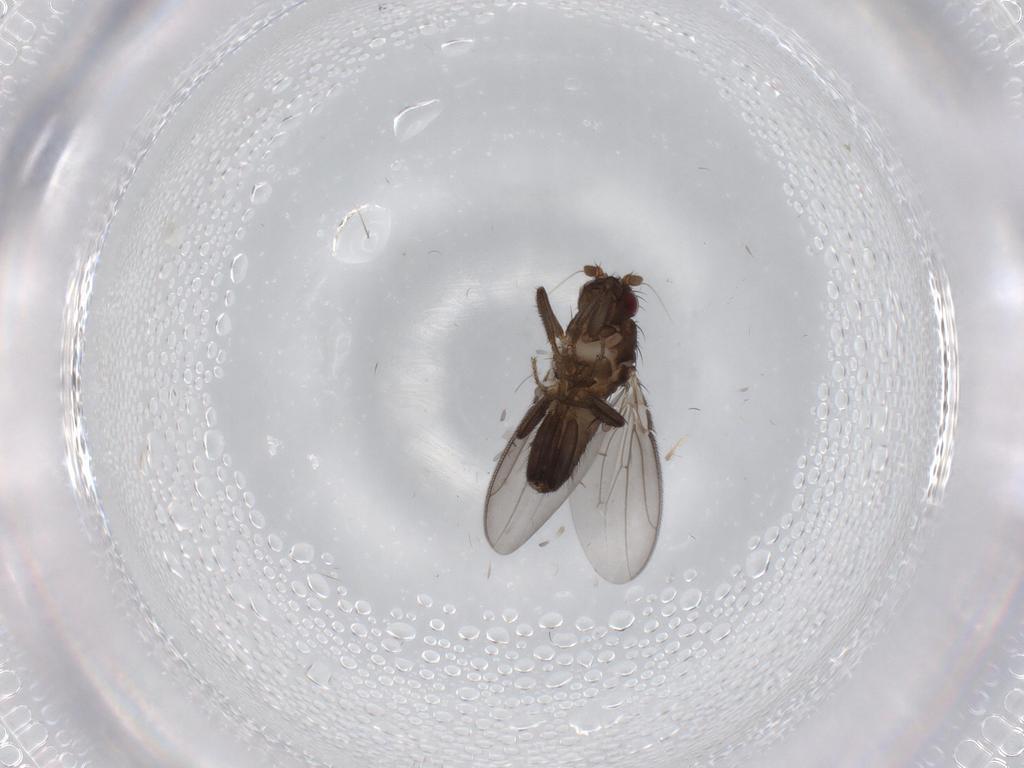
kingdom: Animalia
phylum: Arthropoda
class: Insecta
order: Diptera
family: Sphaeroceridae
